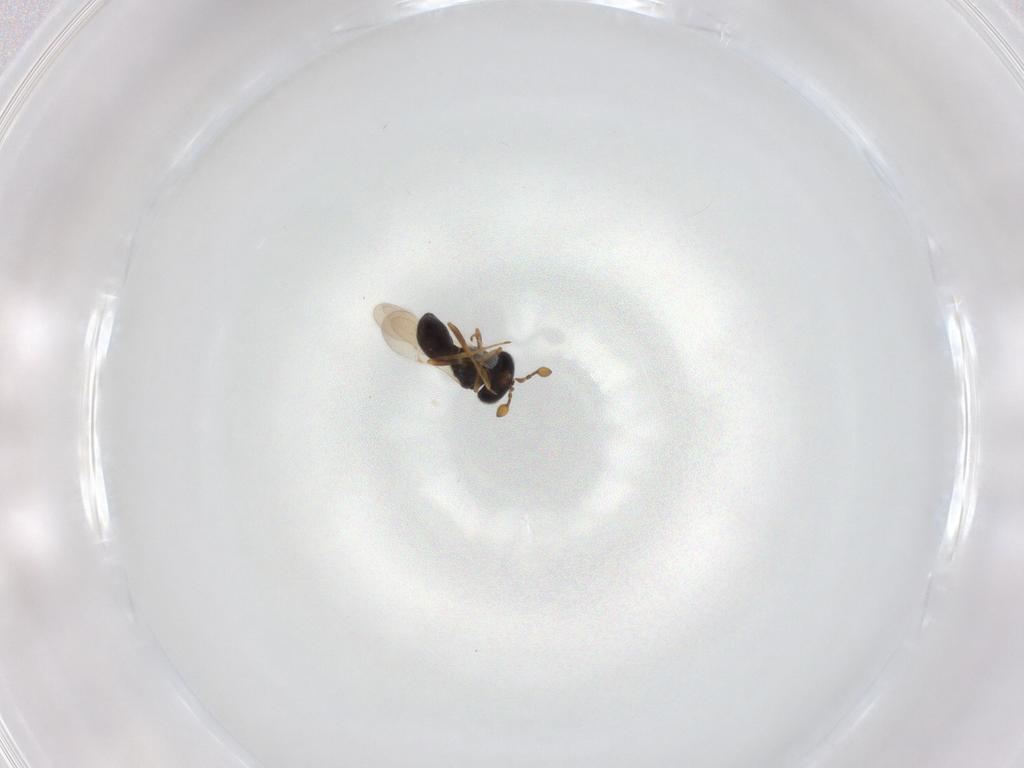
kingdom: Animalia
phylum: Arthropoda
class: Insecta
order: Hymenoptera
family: Scelionidae
